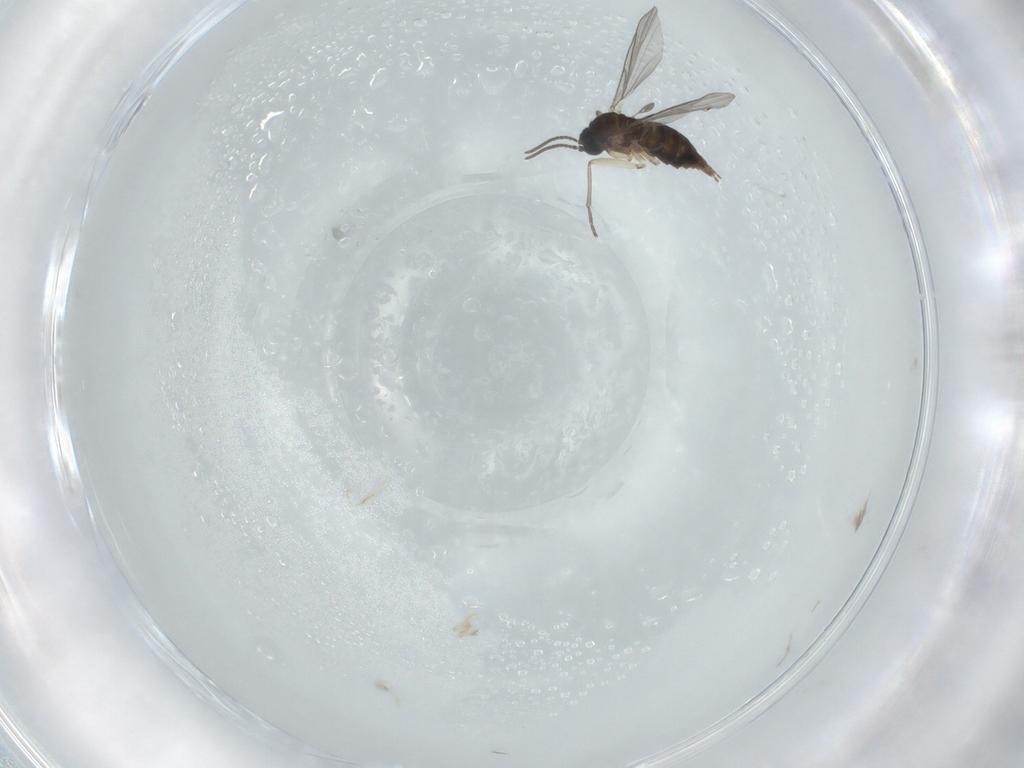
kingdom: Animalia
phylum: Arthropoda
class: Insecta
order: Diptera
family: Sciaridae
